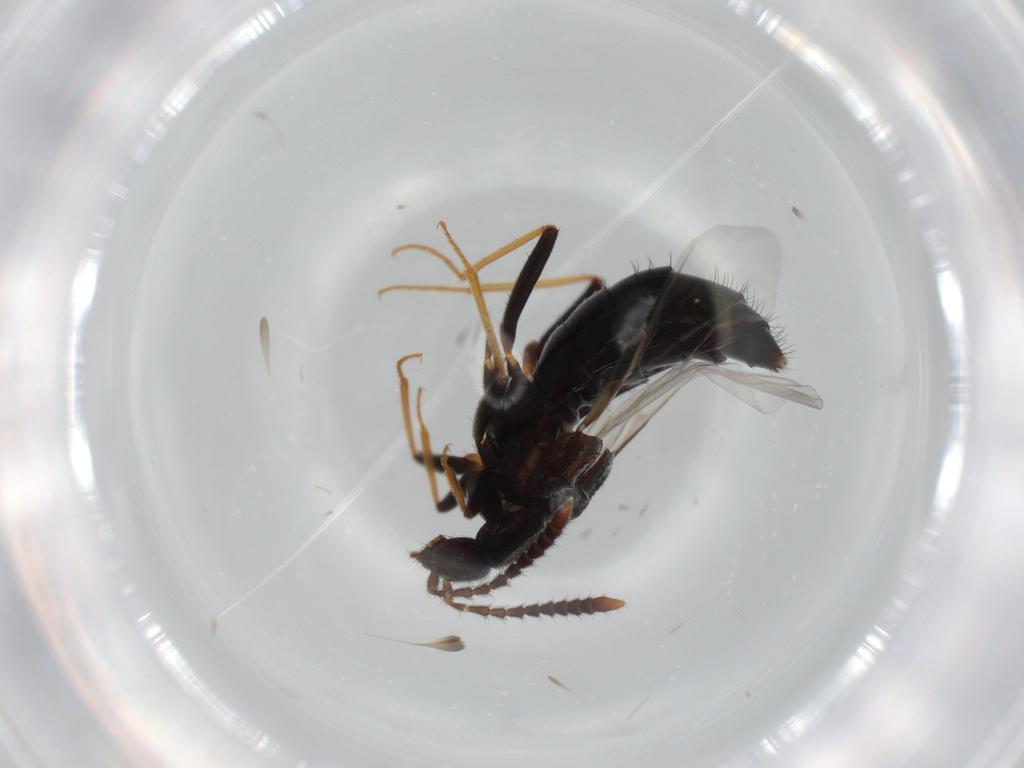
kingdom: Animalia
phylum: Arthropoda
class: Insecta
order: Coleoptera
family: Staphylinidae
